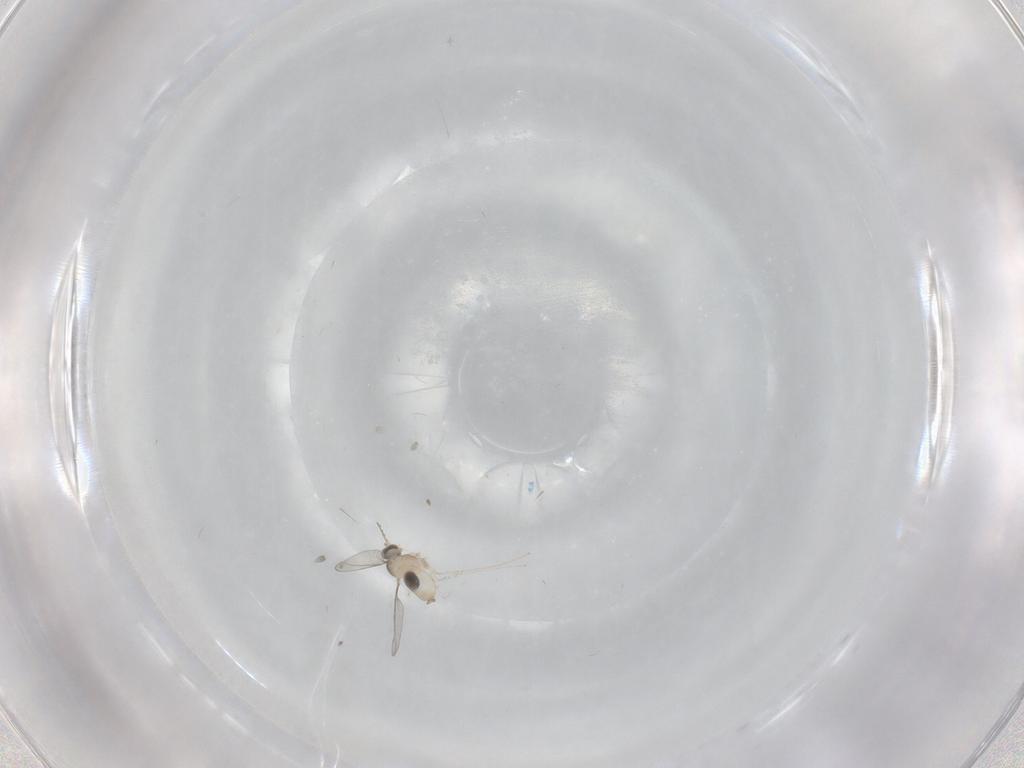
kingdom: Animalia
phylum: Arthropoda
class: Insecta
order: Diptera
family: Cecidomyiidae
